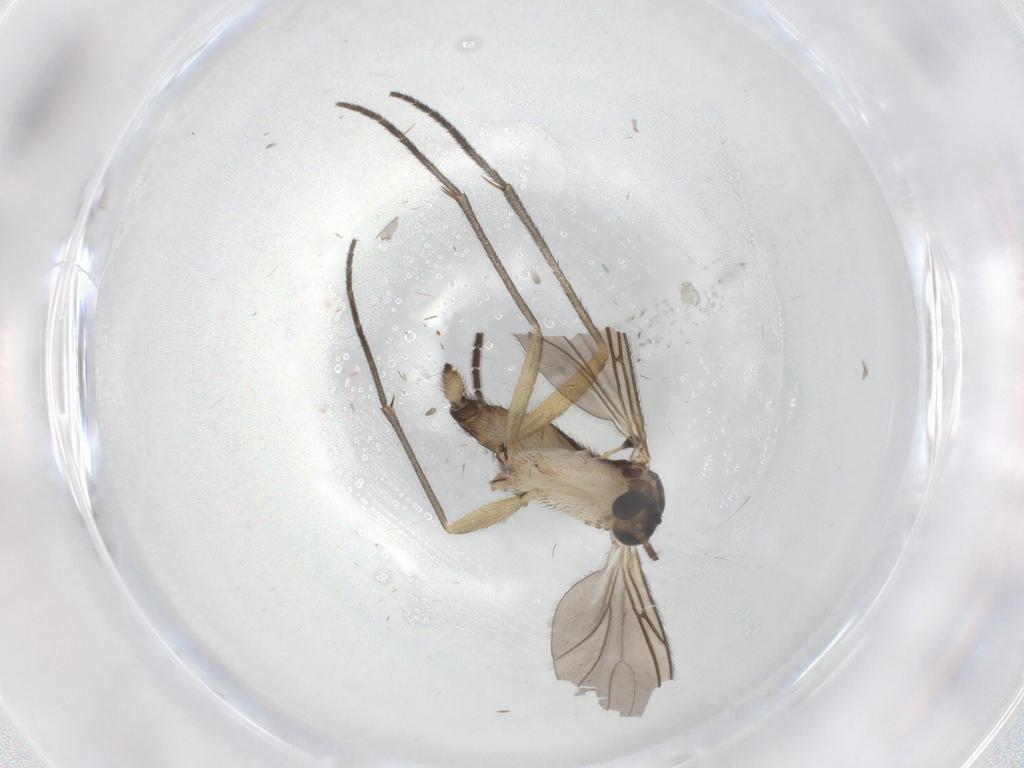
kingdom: Animalia
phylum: Arthropoda
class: Insecta
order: Diptera
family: Sciaridae
